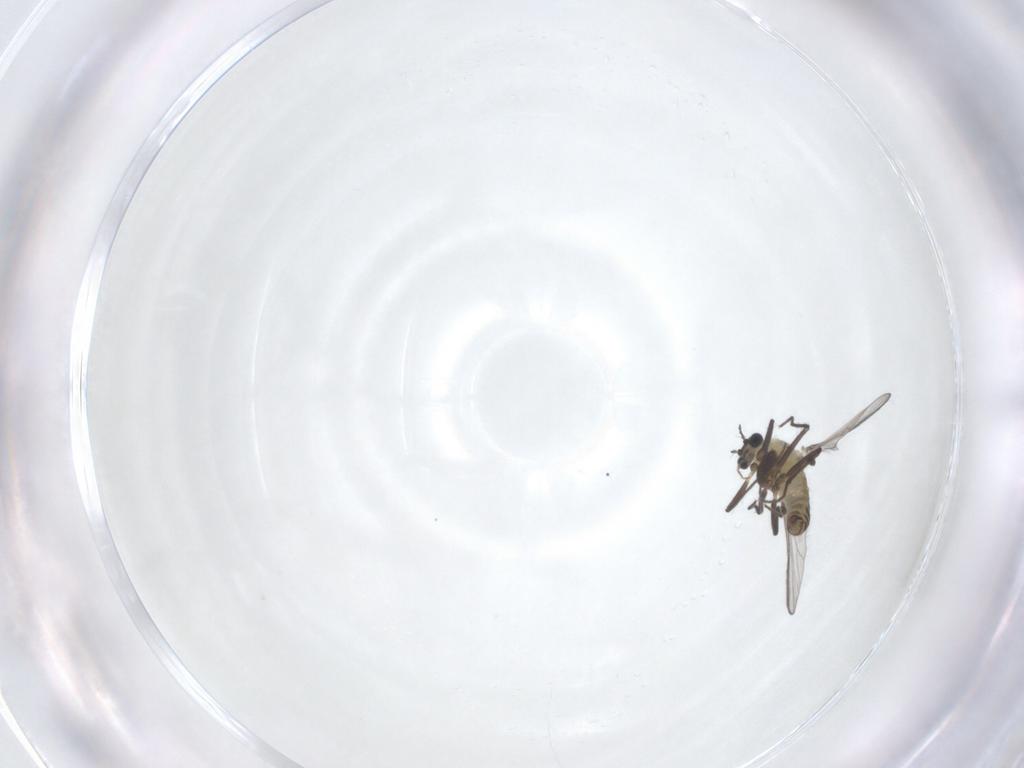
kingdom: Animalia
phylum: Arthropoda
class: Insecta
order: Diptera
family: Chironomidae
